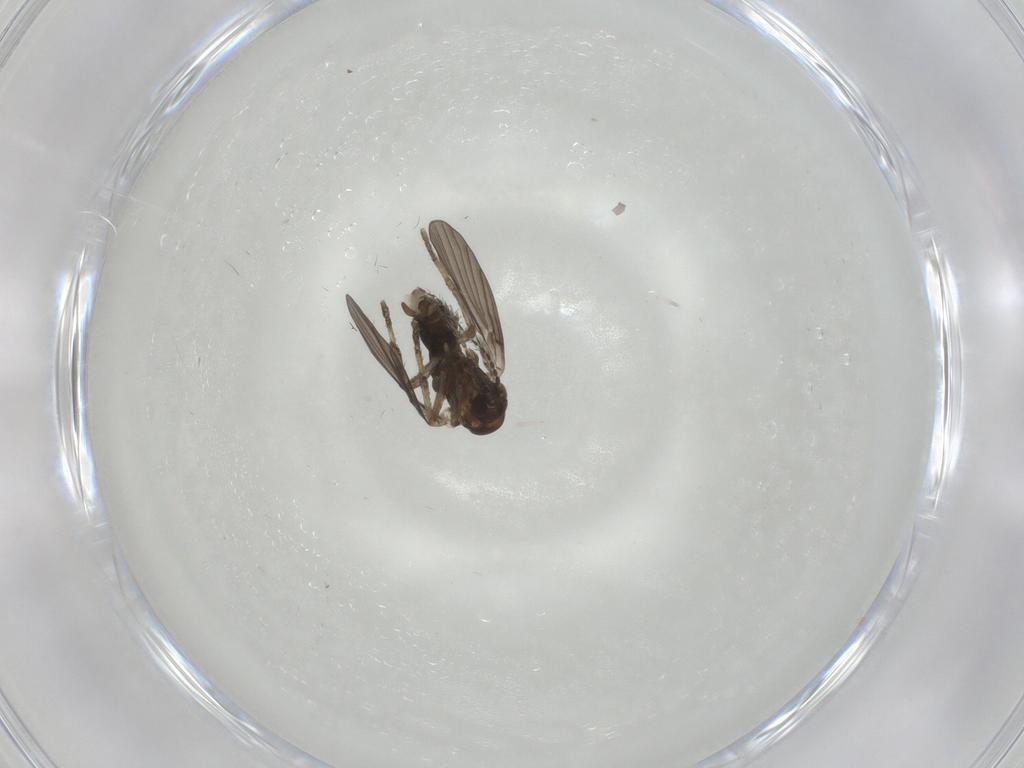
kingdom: Animalia
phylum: Arthropoda
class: Insecta
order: Diptera
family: Psychodidae
